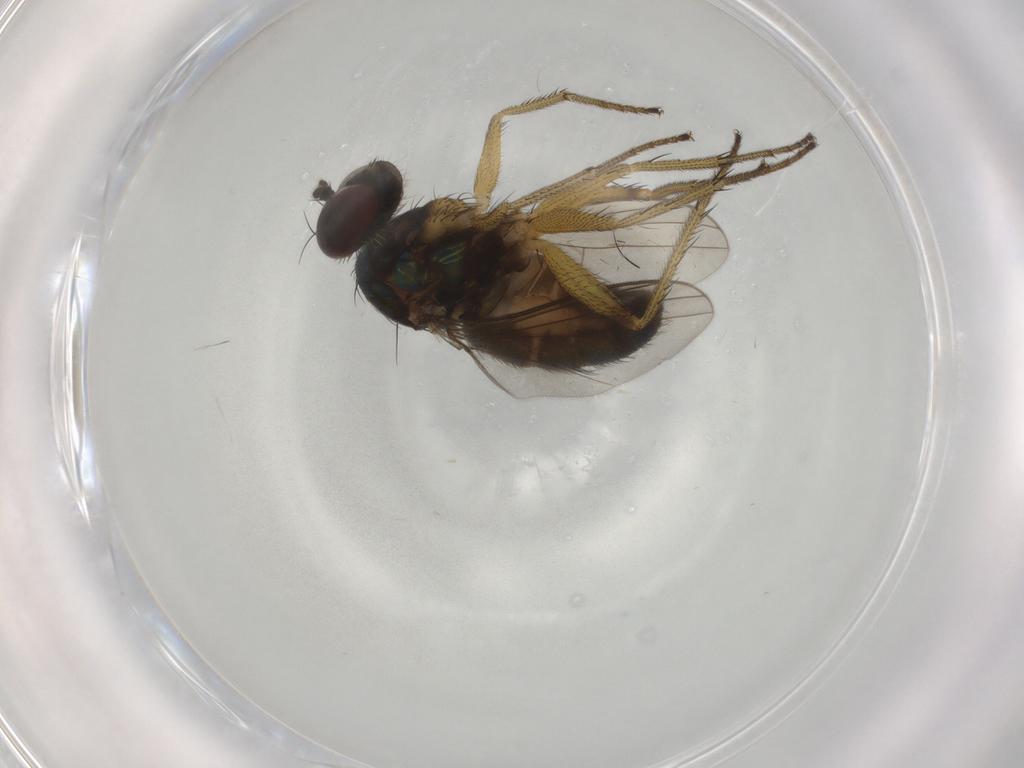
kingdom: Animalia
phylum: Arthropoda
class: Insecta
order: Diptera
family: Dolichopodidae
